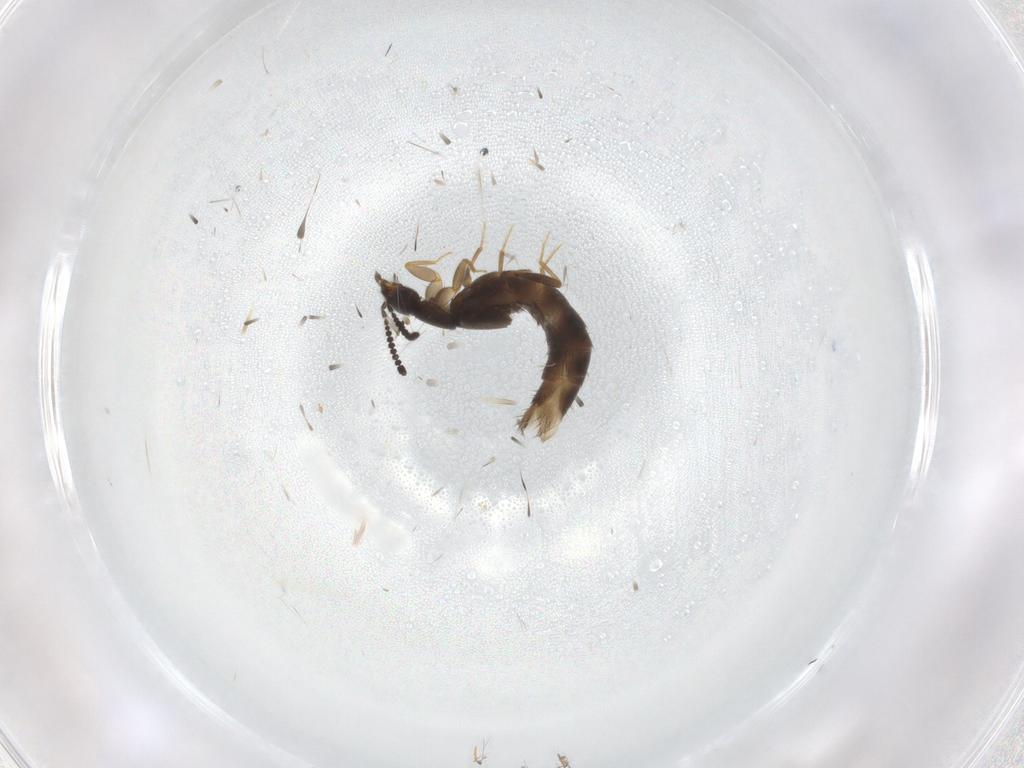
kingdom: Animalia
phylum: Arthropoda
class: Insecta
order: Coleoptera
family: Staphylinidae
